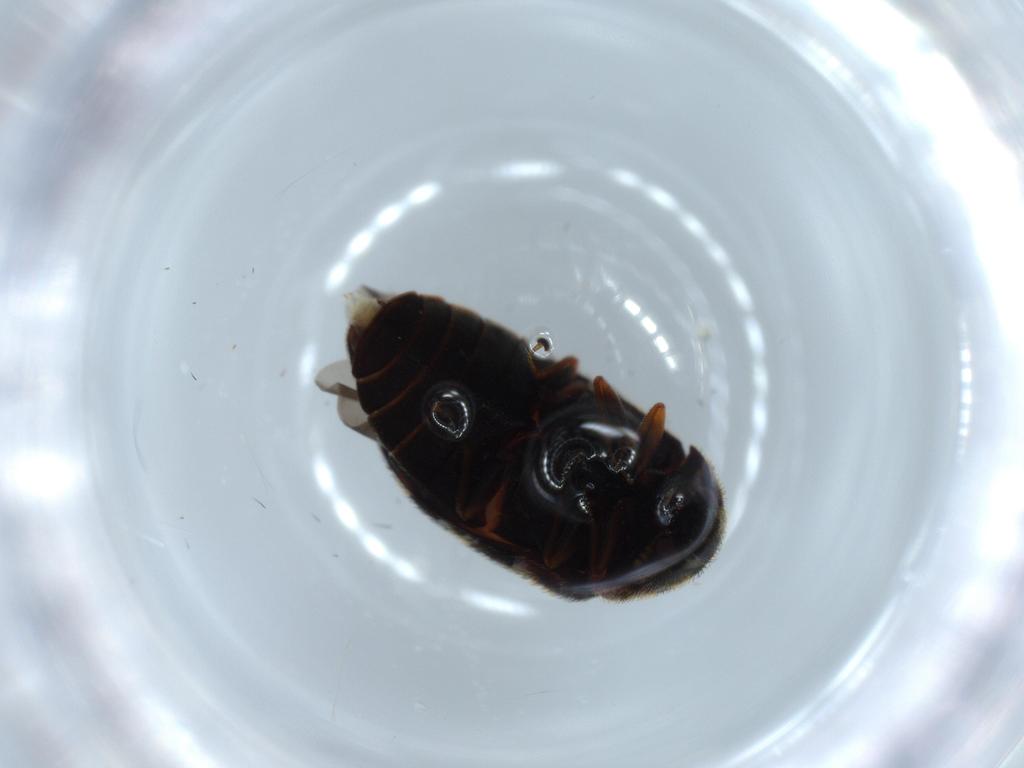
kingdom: Animalia
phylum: Arthropoda
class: Insecta
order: Coleoptera
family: Dermestidae
